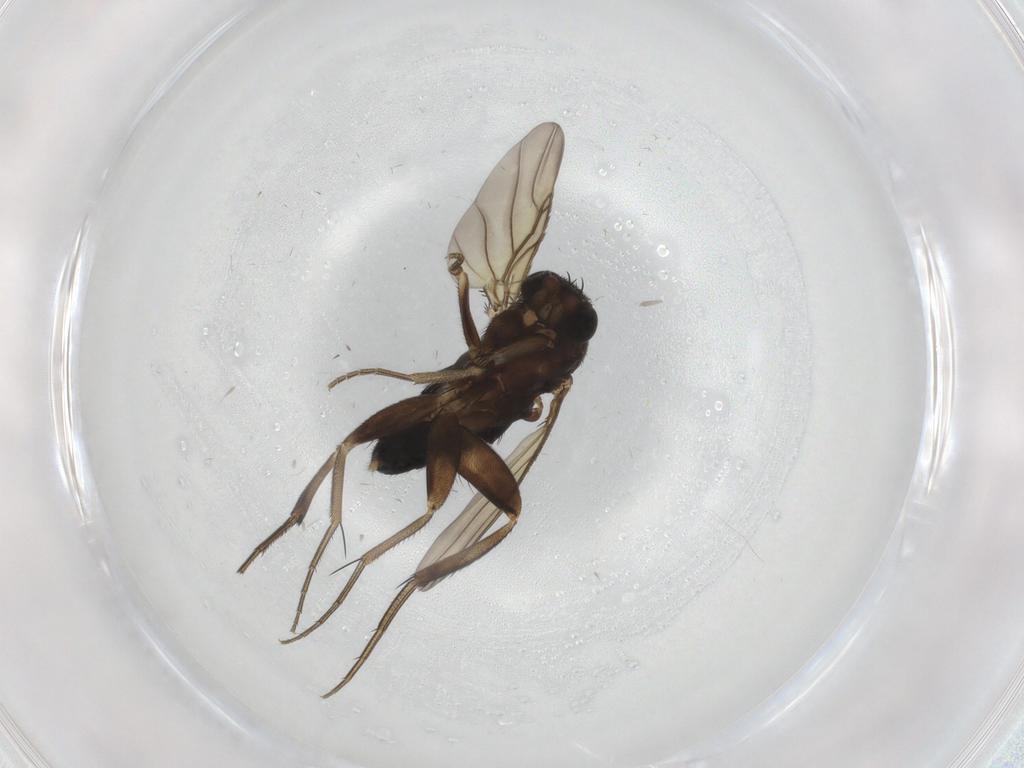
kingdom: Animalia
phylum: Arthropoda
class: Insecta
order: Diptera
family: Phoridae
